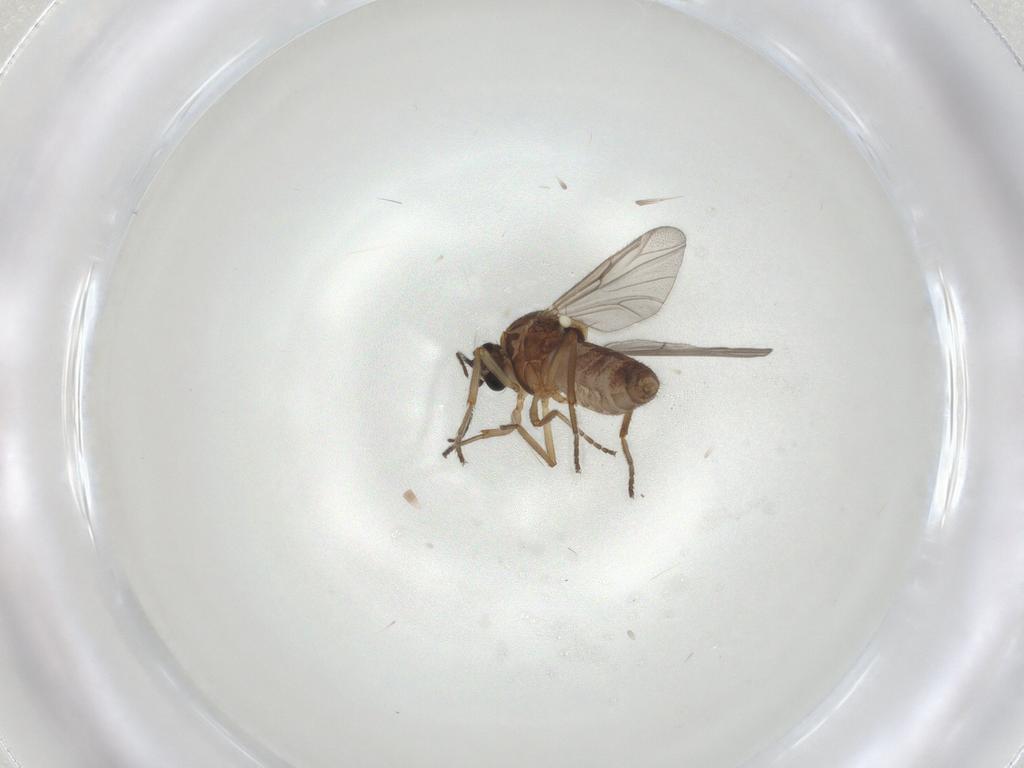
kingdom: Animalia
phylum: Arthropoda
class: Insecta
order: Diptera
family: Ceratopogonidae
